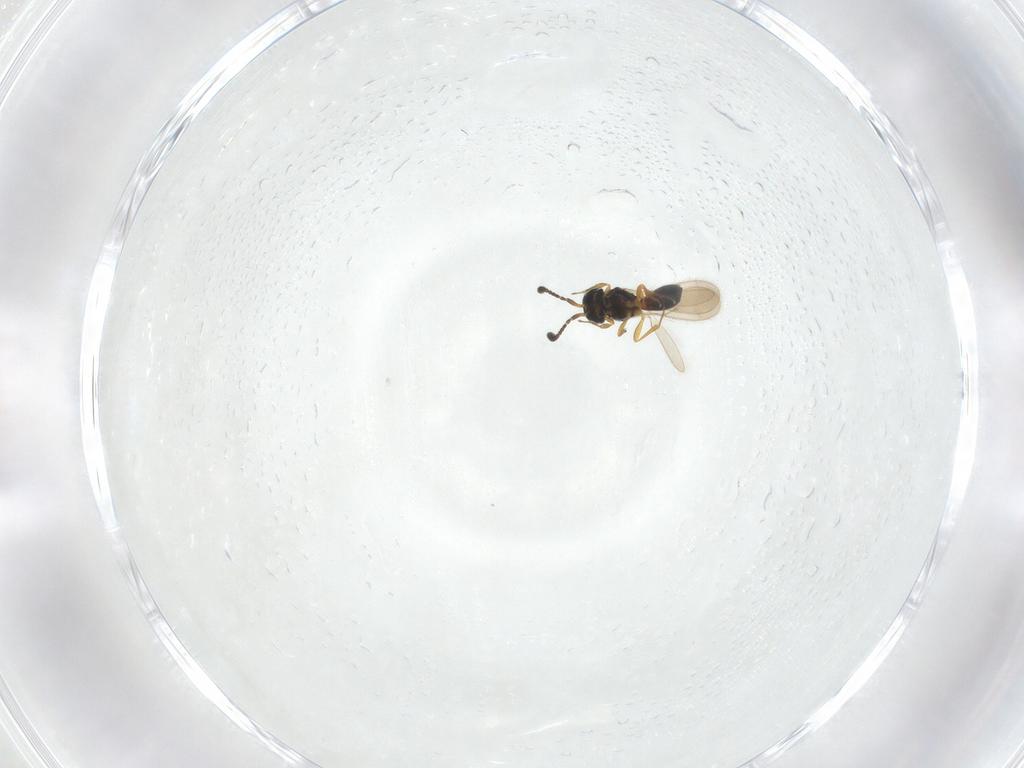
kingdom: Animalia
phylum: Arthropoda
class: Insecta
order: Hymenoptera
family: Scelionidae
